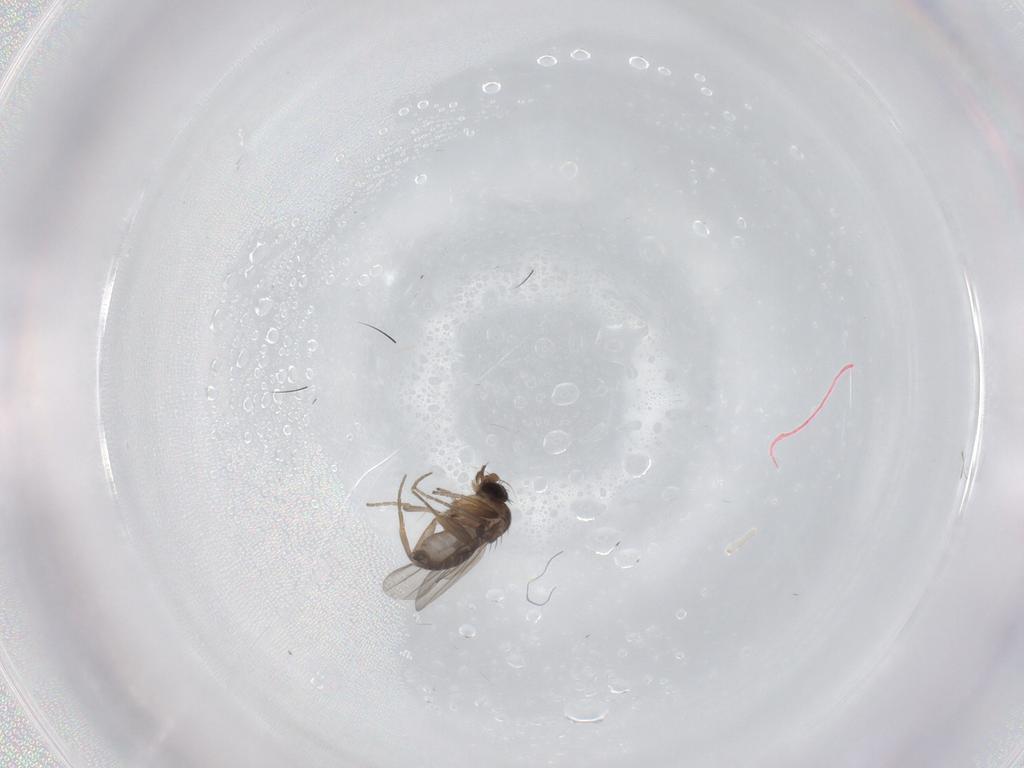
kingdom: Animalia
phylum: Arthropoda
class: Insecta
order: Diptera
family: Phoridae
